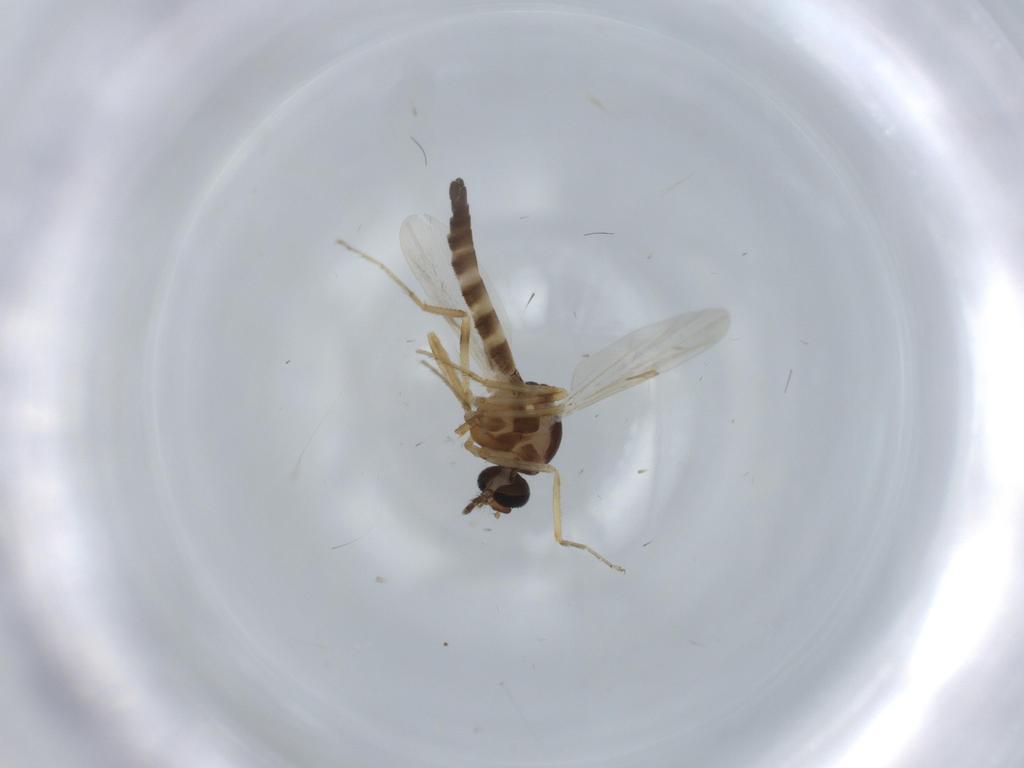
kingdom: Animalia
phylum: Arthropoda
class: Insecta
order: Diptera
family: Ceratopogonidae
